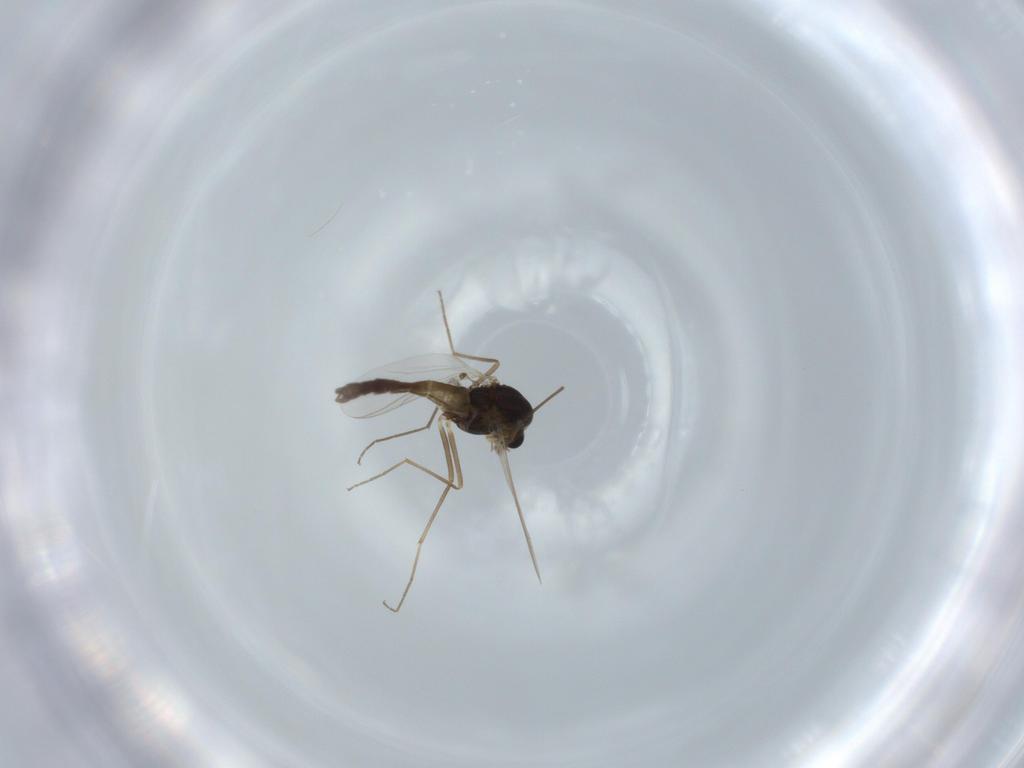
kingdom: Animalia
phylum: Arthropoda
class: Insecta
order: Diptera
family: Chironomidae
